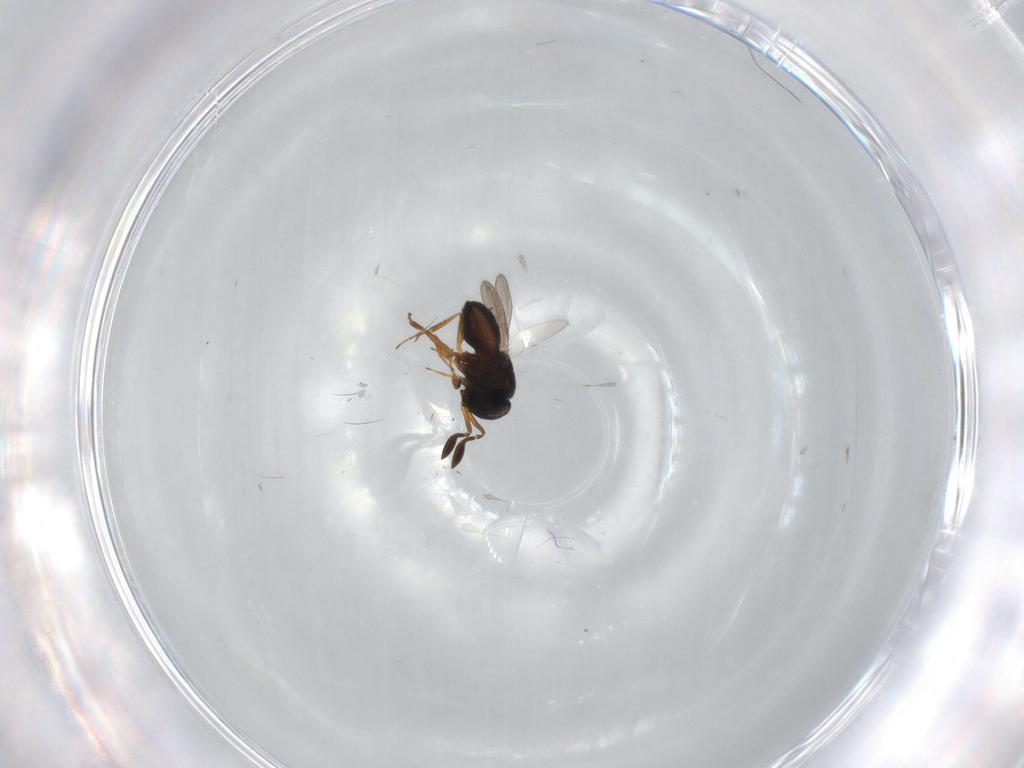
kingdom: Animalia
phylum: Arthropoda
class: Insecta
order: Hymenoptera
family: Scelionidae
